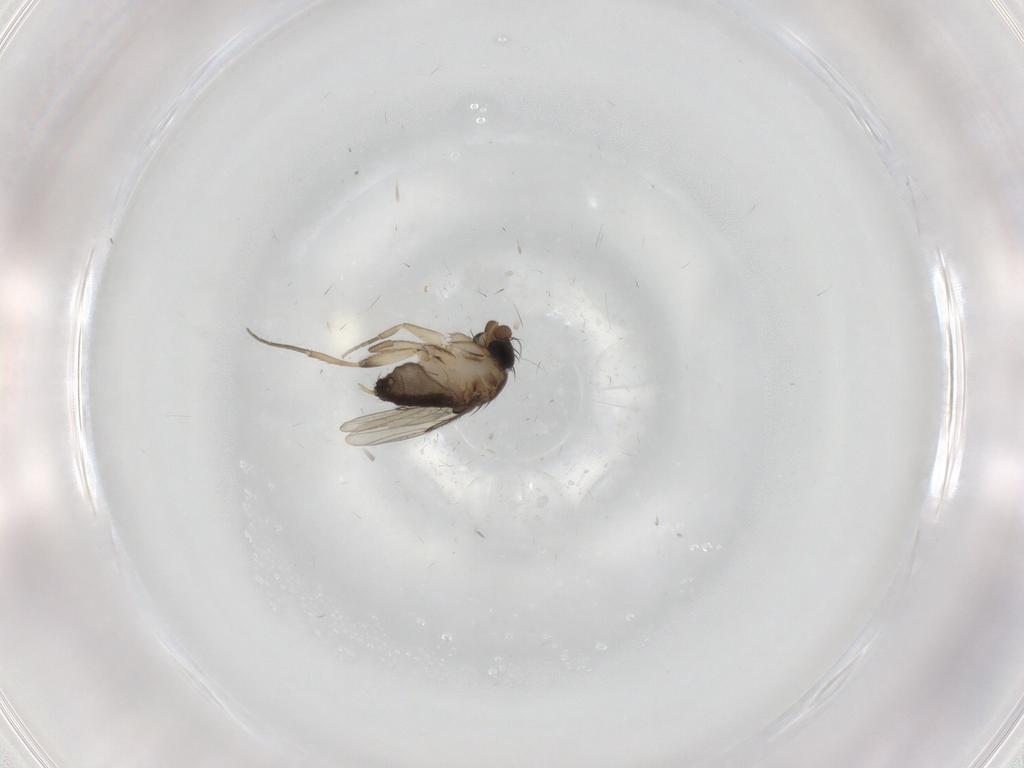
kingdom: Animalia
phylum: Arthropoda
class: Insecta
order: Diptera
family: Phoridae
